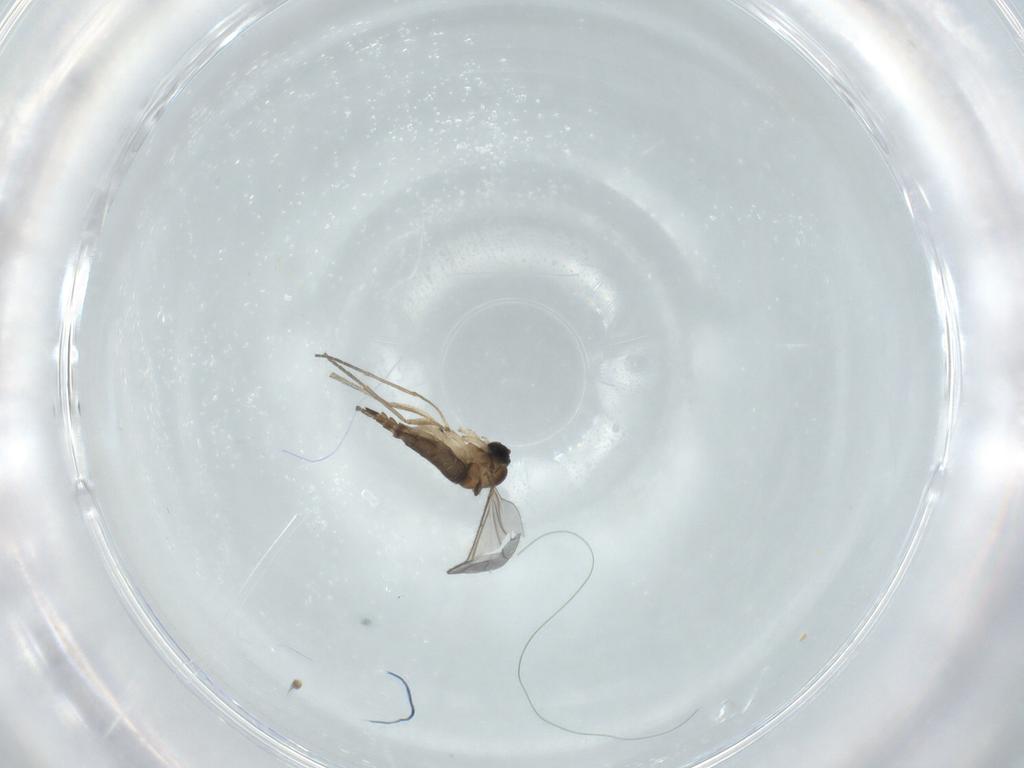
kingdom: Animalia
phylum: Arthropoda
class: Insecta
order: Diptera
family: Sciaridae
